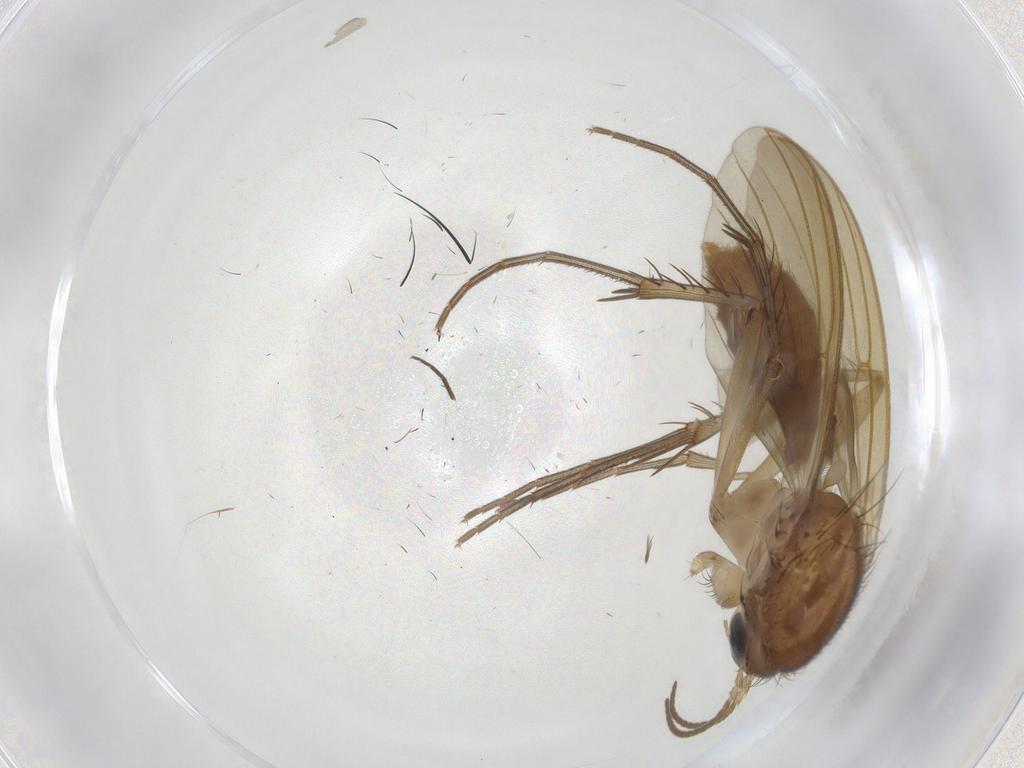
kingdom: Animalia
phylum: Arthropoda
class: Insecta
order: Diptera
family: Mycetophilidae
